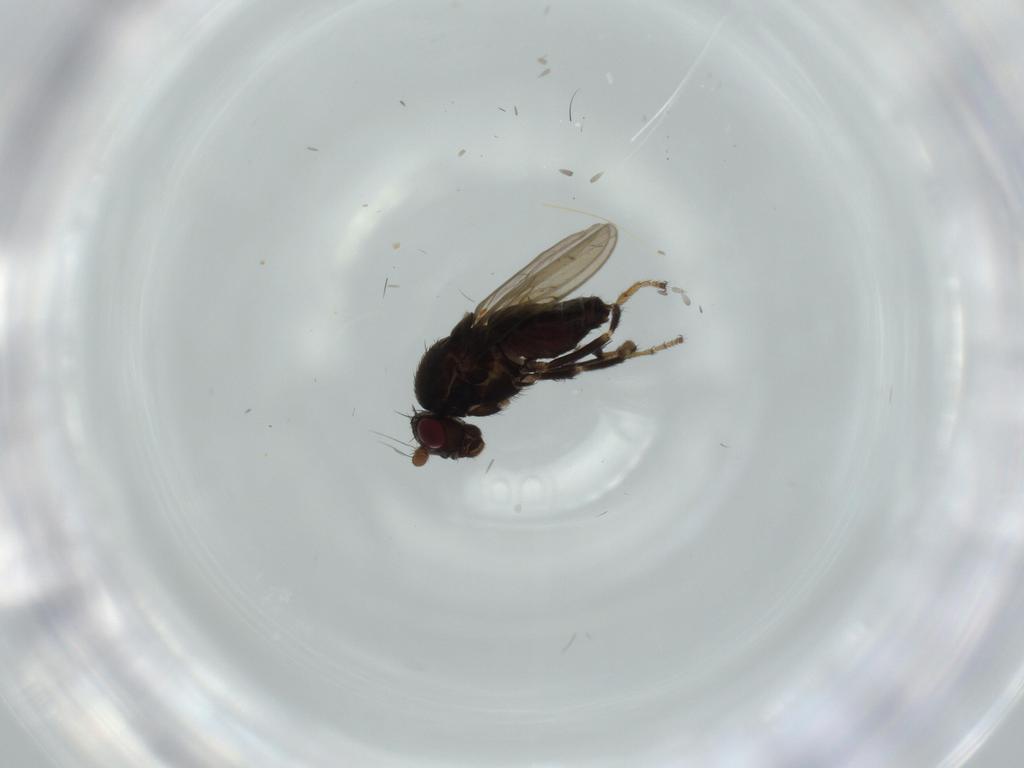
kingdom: Animalia
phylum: Arthropoda
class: Insecta
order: Diptera
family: Sphaeroceridae
